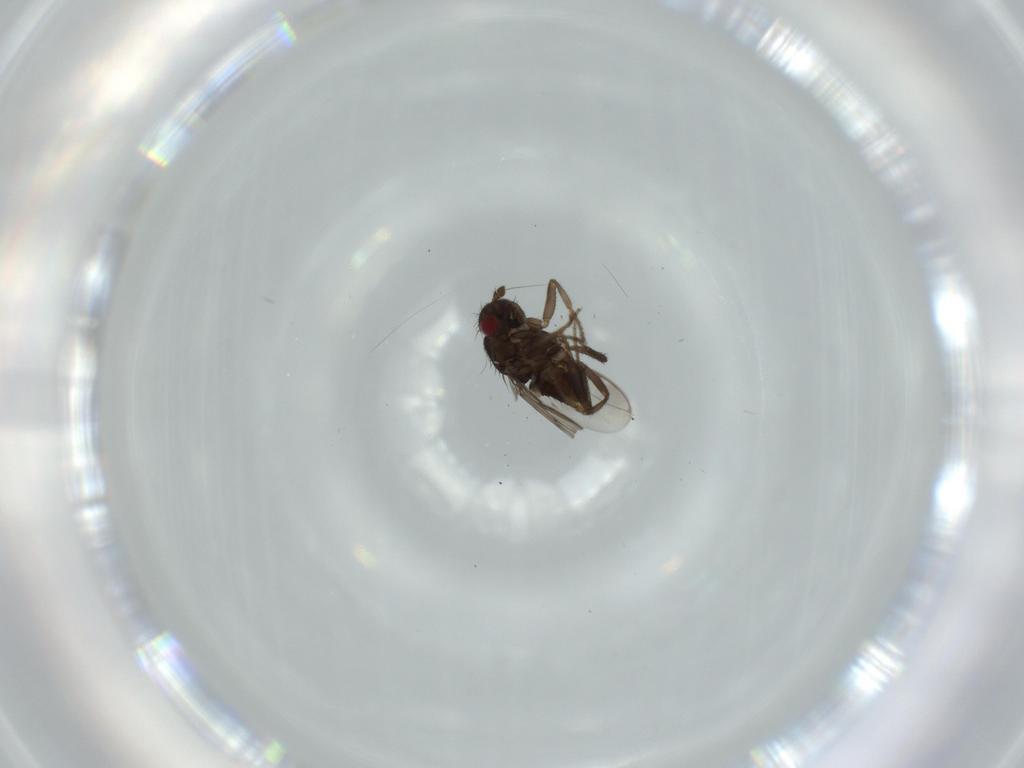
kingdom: Animalia
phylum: Arthropoda
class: Insecta
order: Diptera
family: Sphaeroceridae
